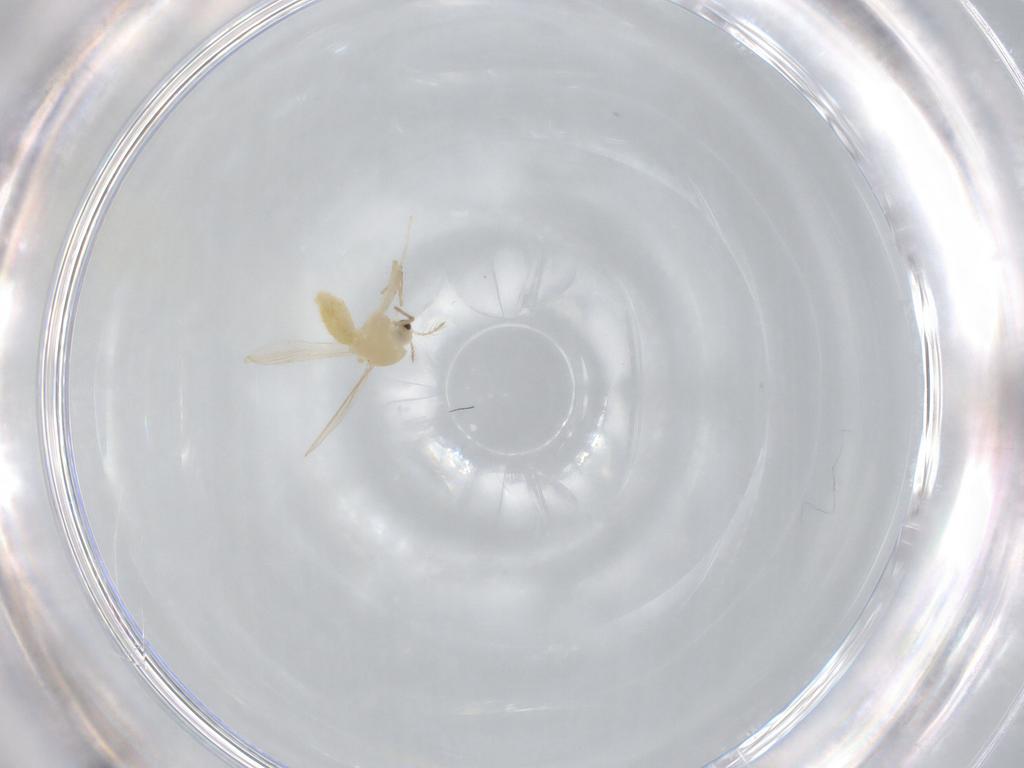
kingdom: Animalia
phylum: Arthropoda
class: Insecta
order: Diptera
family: Chironomidae
